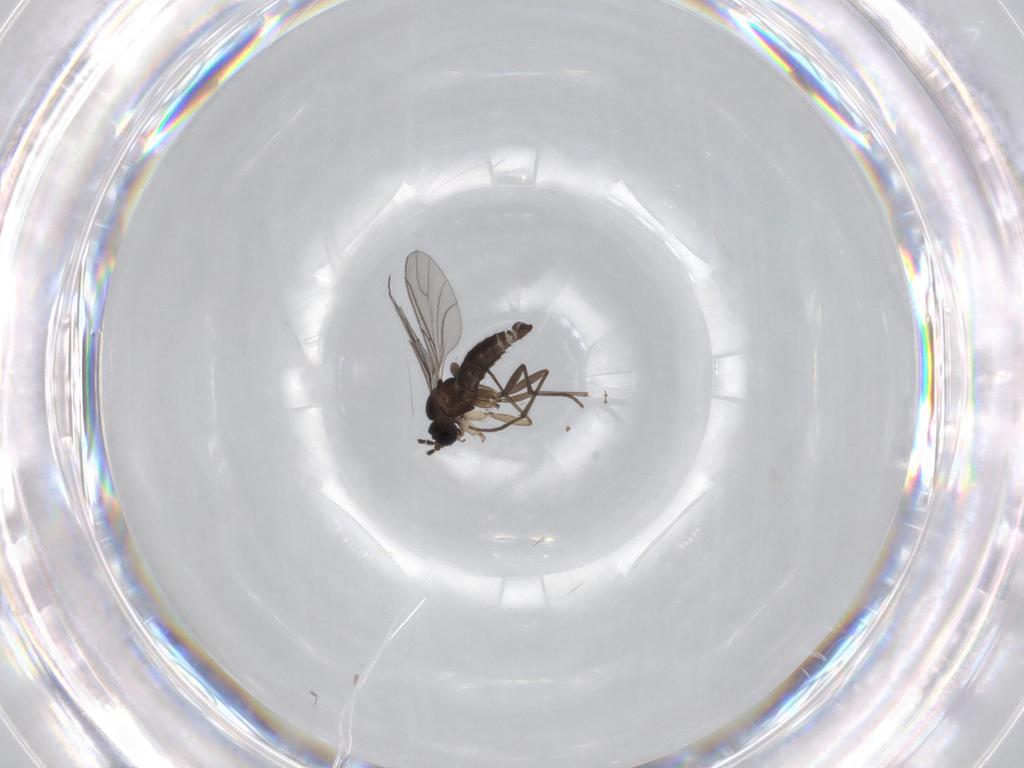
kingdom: Animalia
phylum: Arthropoda
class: Insecta
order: Diptera
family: Sciaridae
